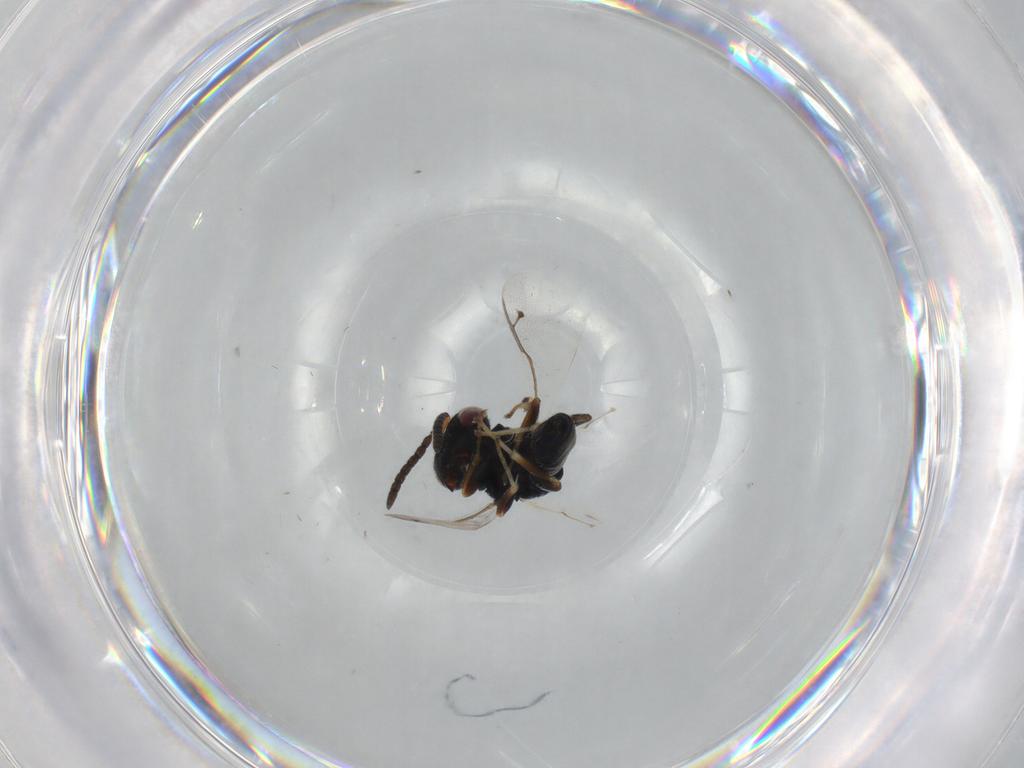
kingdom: Animalia
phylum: Arthropoda
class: Insecta
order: Hymenoptera
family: Pteromalidae
